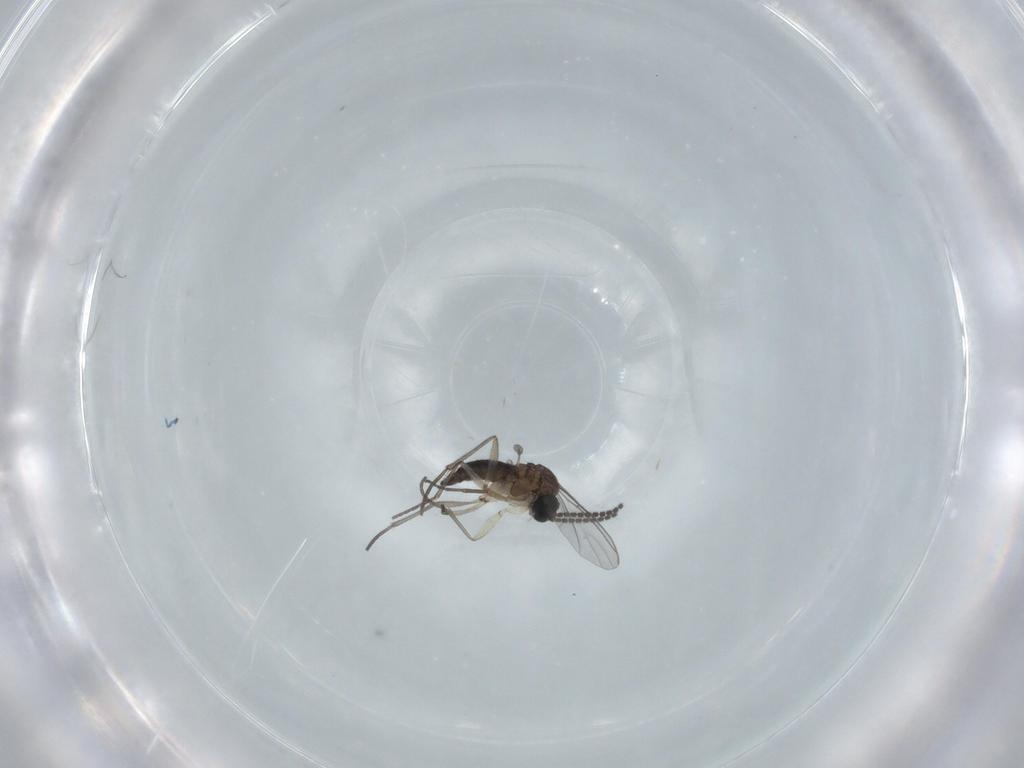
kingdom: Animalia
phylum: Arthropoda
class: Insecta
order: Diptera
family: Sciaridae
